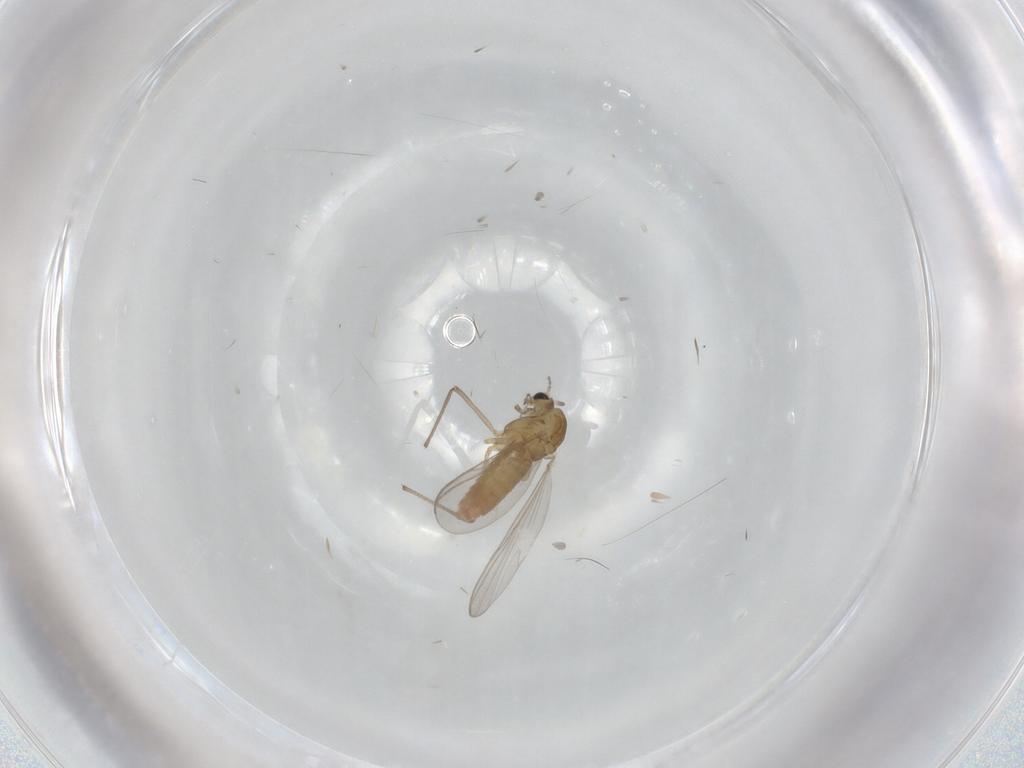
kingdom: Animalia
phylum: Arthropoda
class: Insecta
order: Diptera
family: Chironomidae
